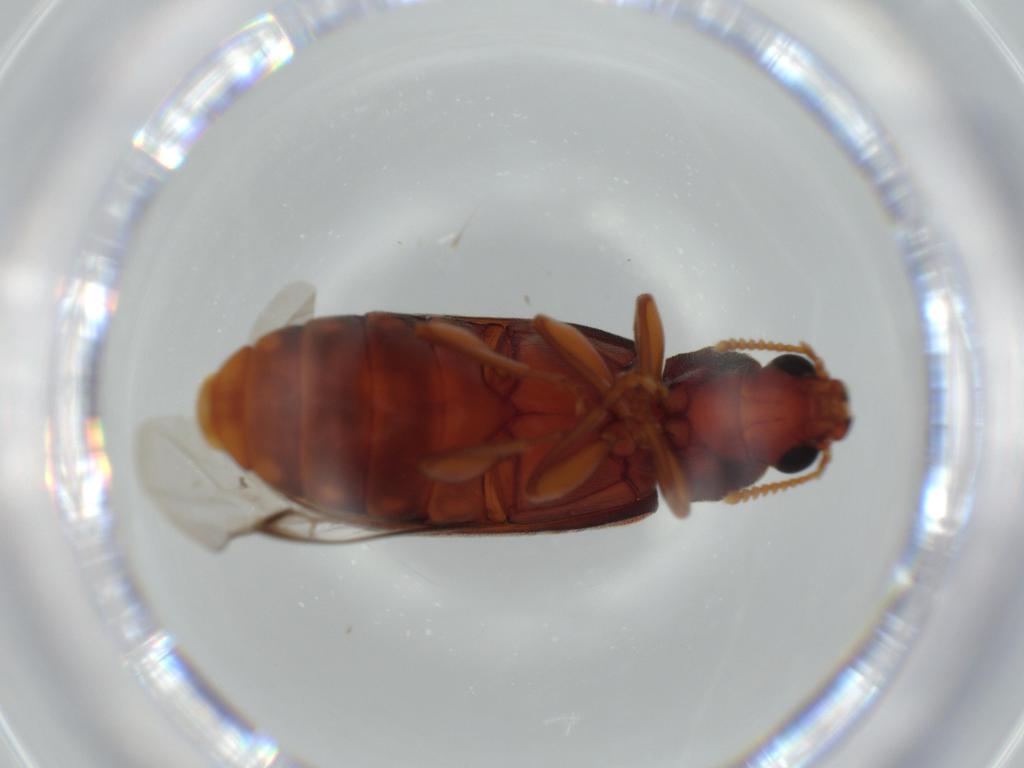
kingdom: Animalia
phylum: Arthropoda
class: Insecta
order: Coleoptera
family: Mycteridae
